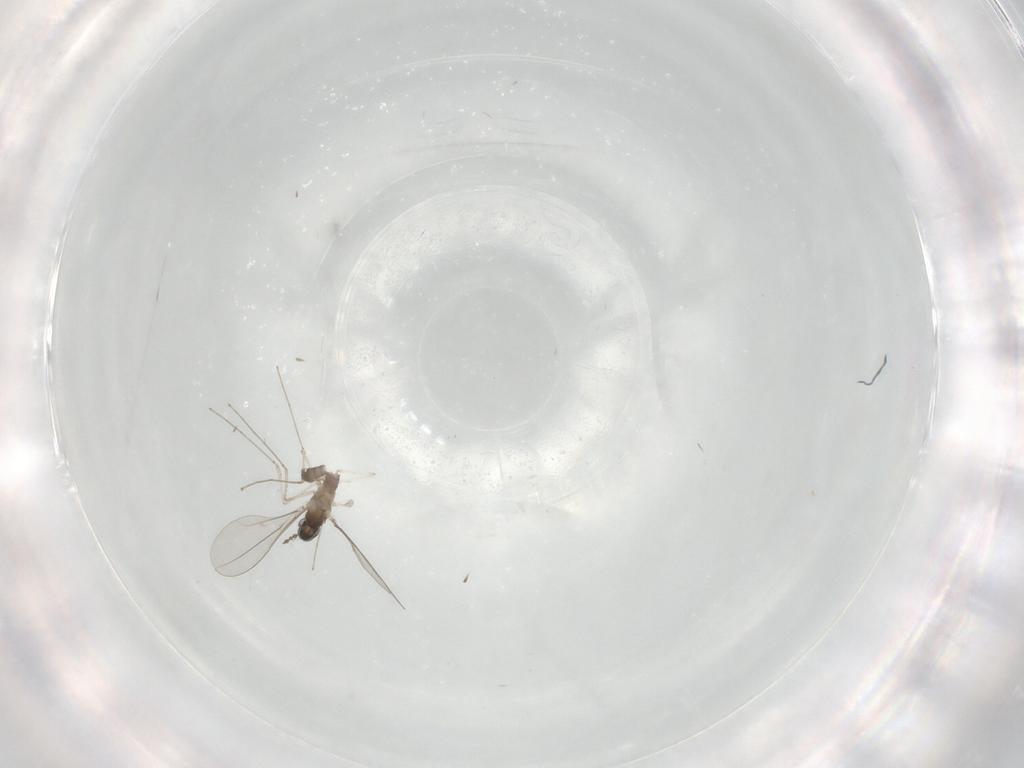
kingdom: Animalia
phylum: Arthropoda
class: Insecta
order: Diptera
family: Cecidomyiidae
